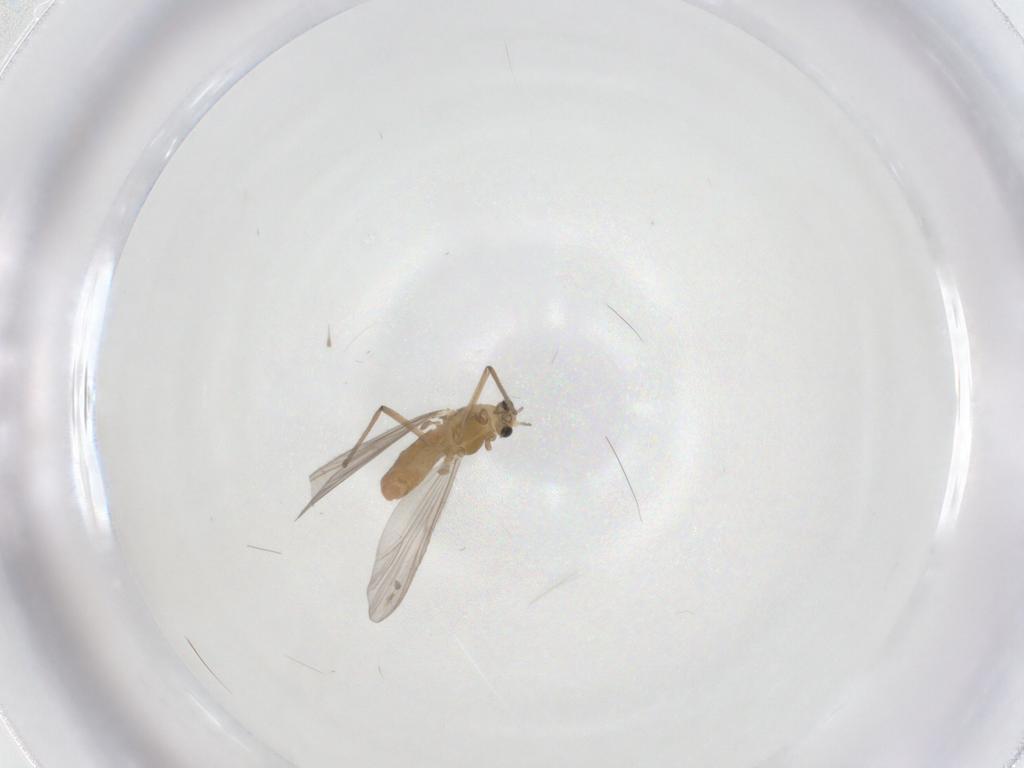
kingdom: Animalia
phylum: Arthropoda
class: Insecta
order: Diptera
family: Chironomidae
